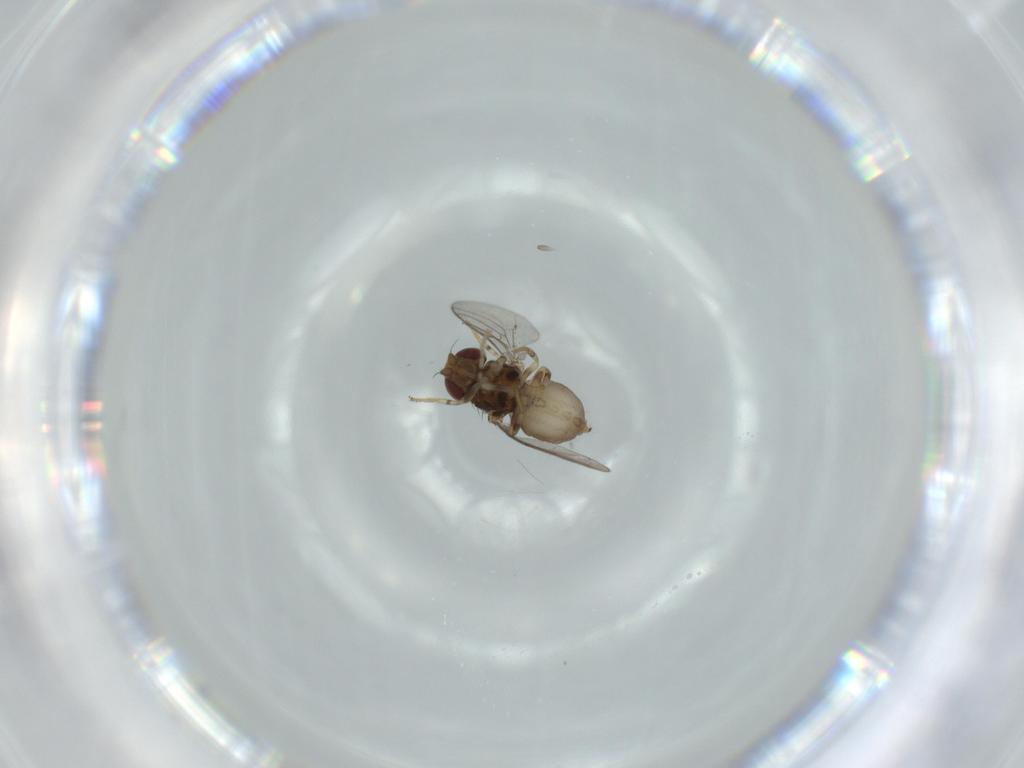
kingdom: Animalia
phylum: Arthropoda
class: Insecta
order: Diptera
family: Chloropidae
